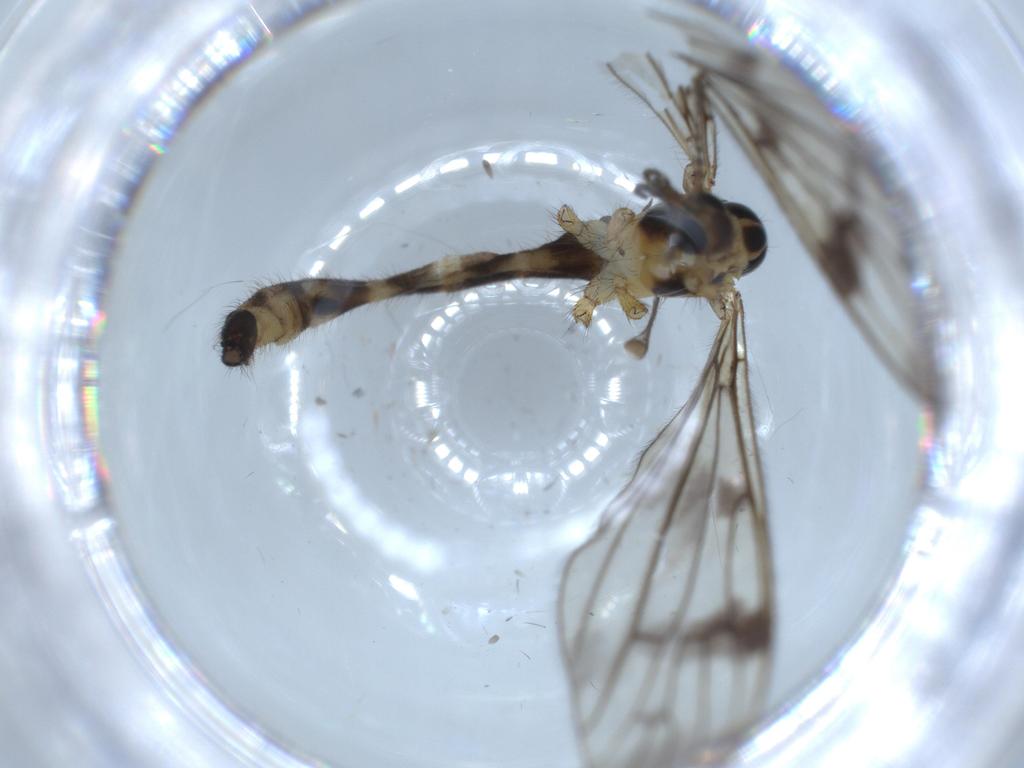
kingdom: Animalia
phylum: Arthropoda
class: Insecta
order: Diptera
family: Limoniidae
